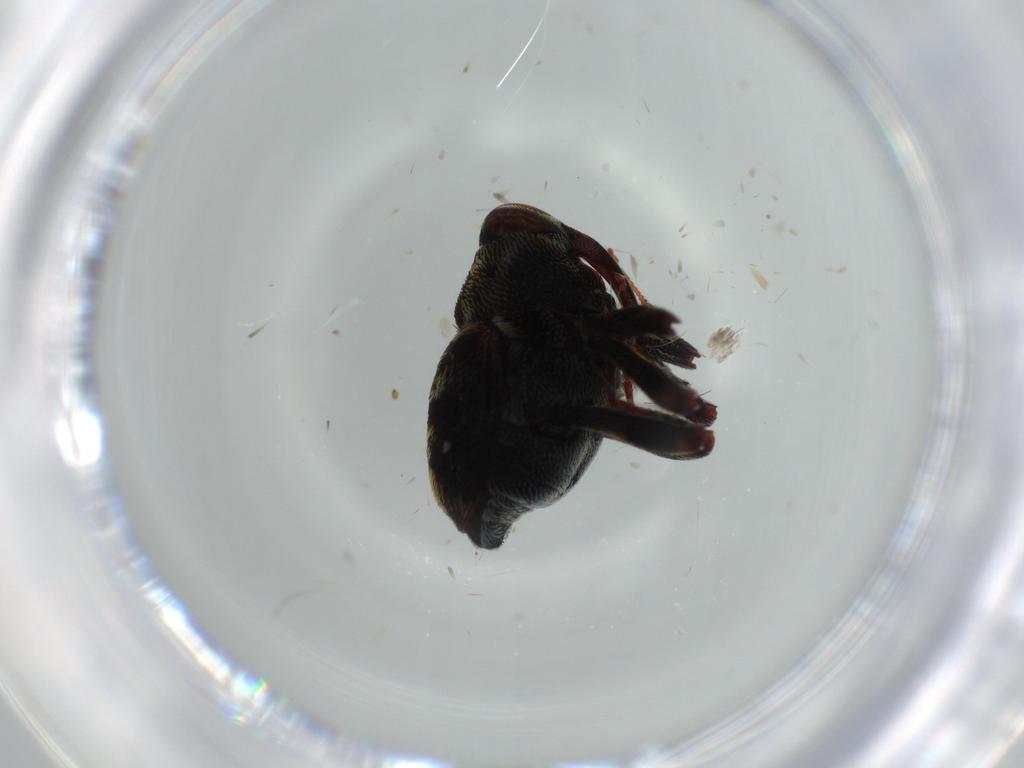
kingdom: Animalia
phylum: Arthropoda
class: Insecta
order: Coleoptera
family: Curculionidae
